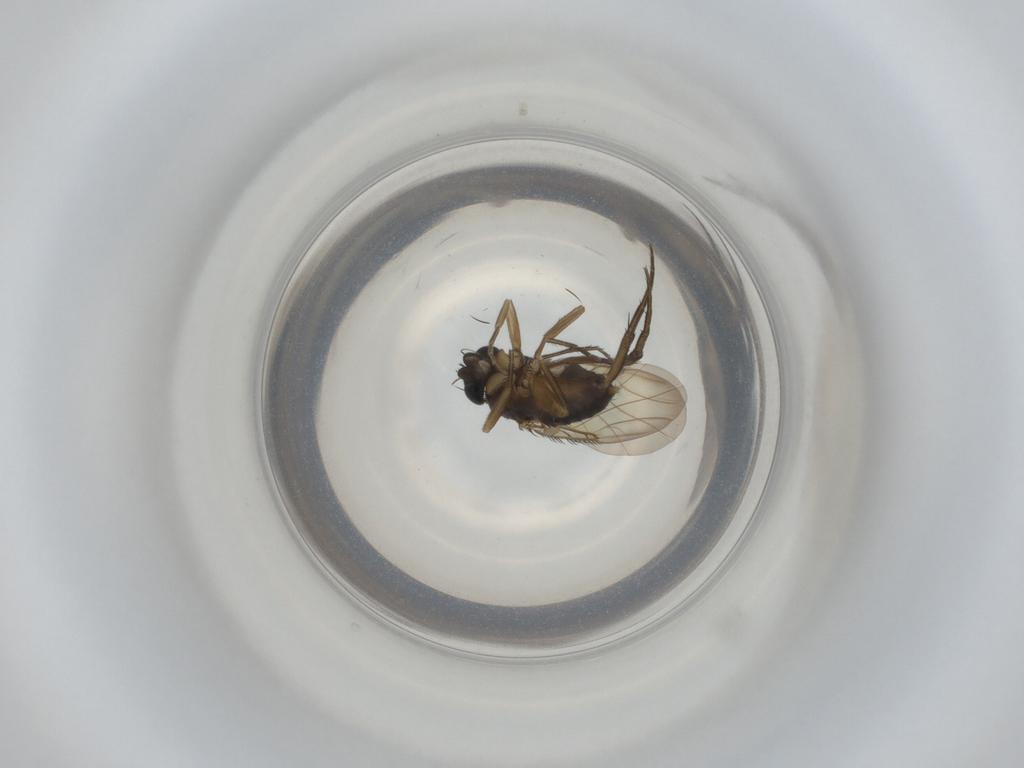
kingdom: Animalia
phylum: Arthropoda
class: Insecta
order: Diptera
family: Phoridae
